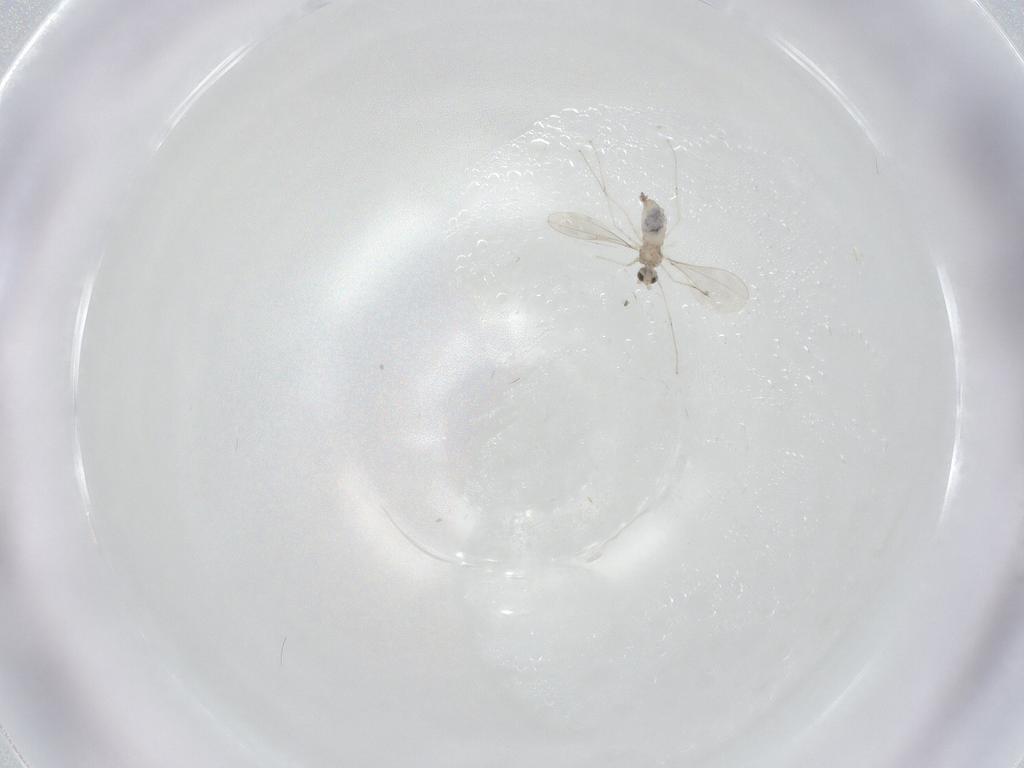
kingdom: Animalia
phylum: Arthropoda
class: Insecta
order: Diptera
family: Cecidomyiidae
